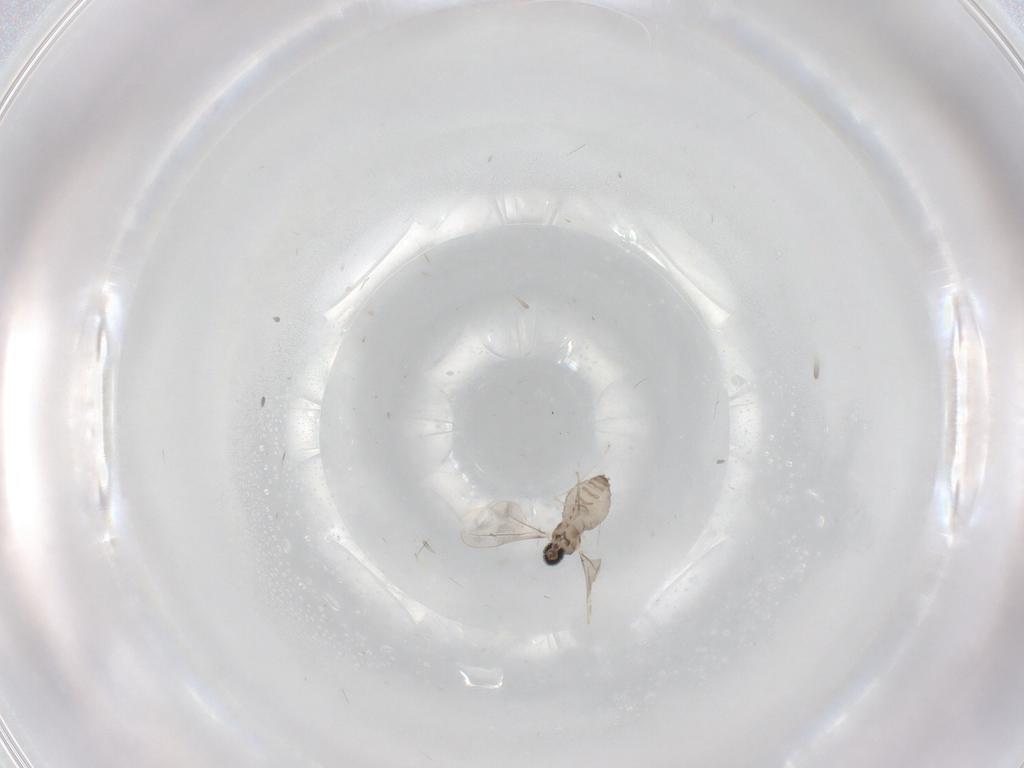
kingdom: Animalia
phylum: Arthropoda
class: Insecta
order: Diptera
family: Cecidomyiidae
